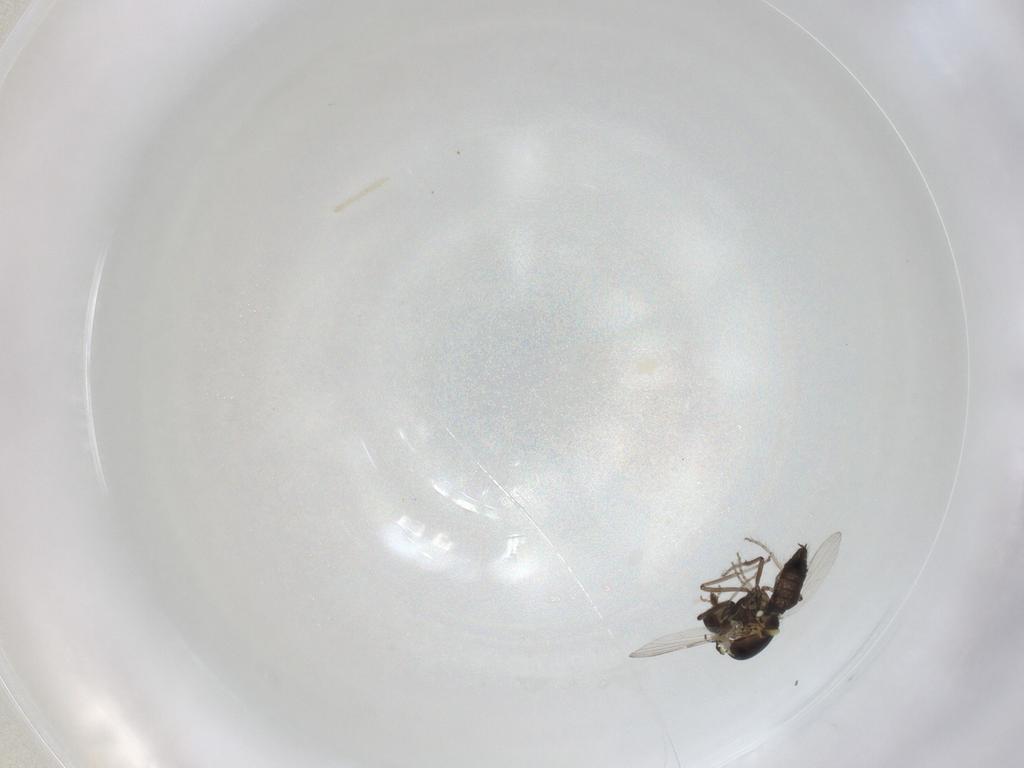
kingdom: Animalia
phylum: Arthropoda
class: Insecta
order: Diptera
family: Ceratopogonidae
